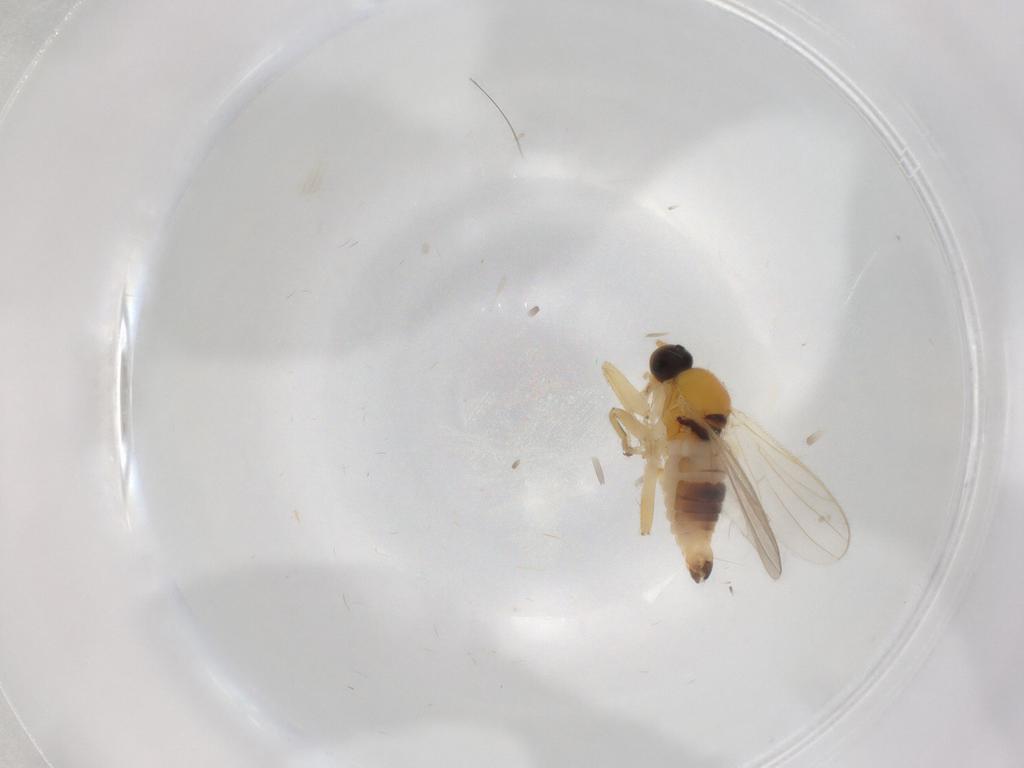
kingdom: Animalia
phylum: Arthropoda
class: Insecta
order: Diptera
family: Hybotidae
